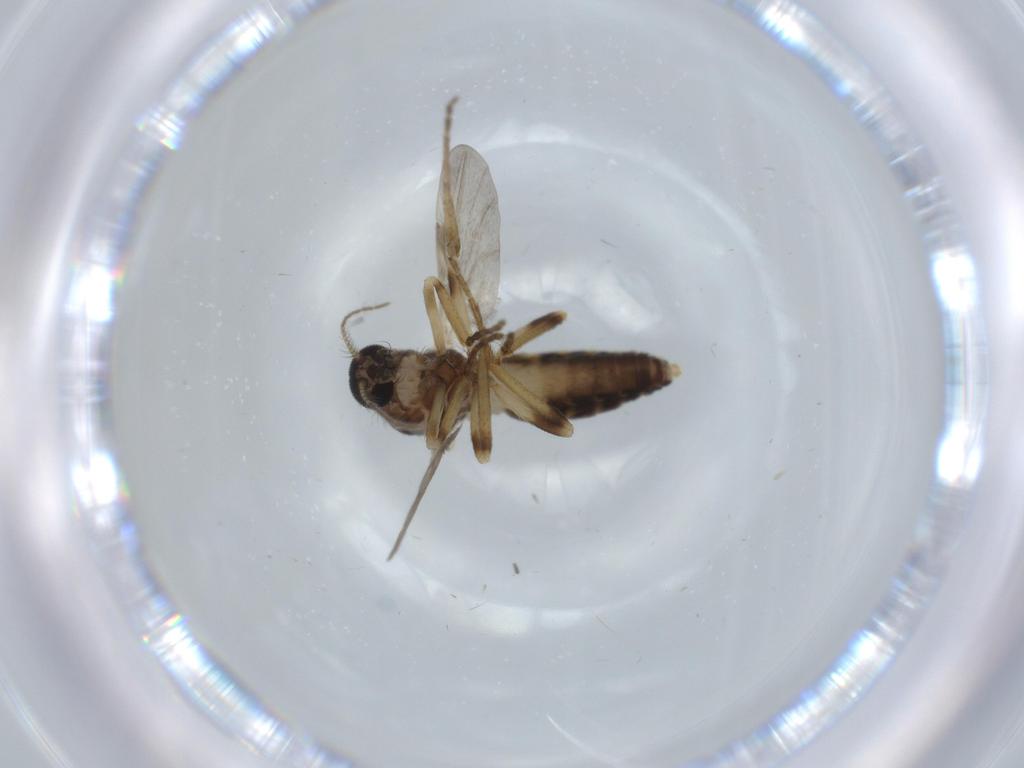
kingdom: Animalia
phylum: Arthropoda
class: Insecta
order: Diptera
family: Ceratopogonidae
